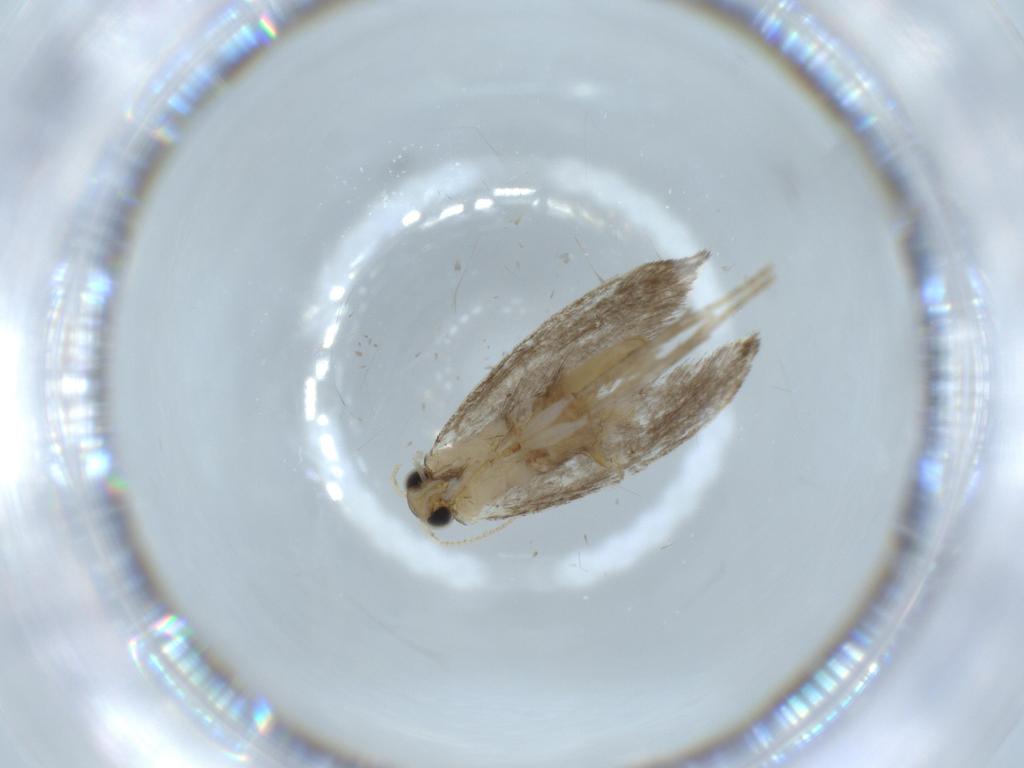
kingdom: Animalia
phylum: Arthropoda
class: Insecta
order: Lepidoptera
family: Tineidae
